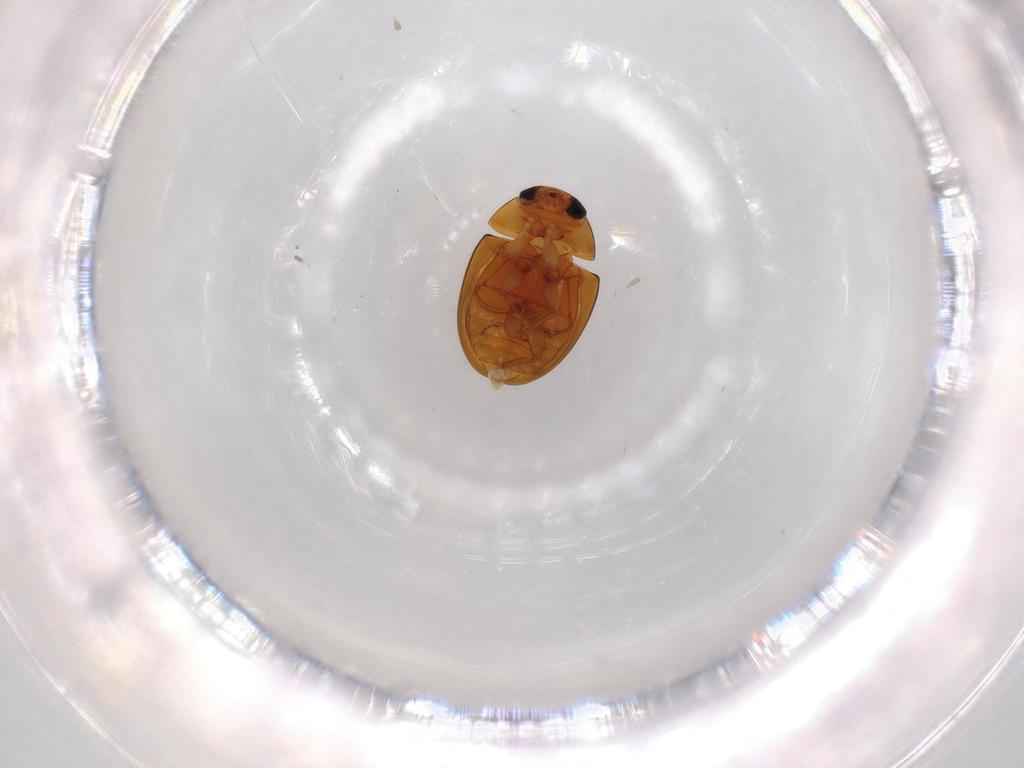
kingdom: Animalia
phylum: Arthropoda
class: Insecta
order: Coleoptera
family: Phalacridae
